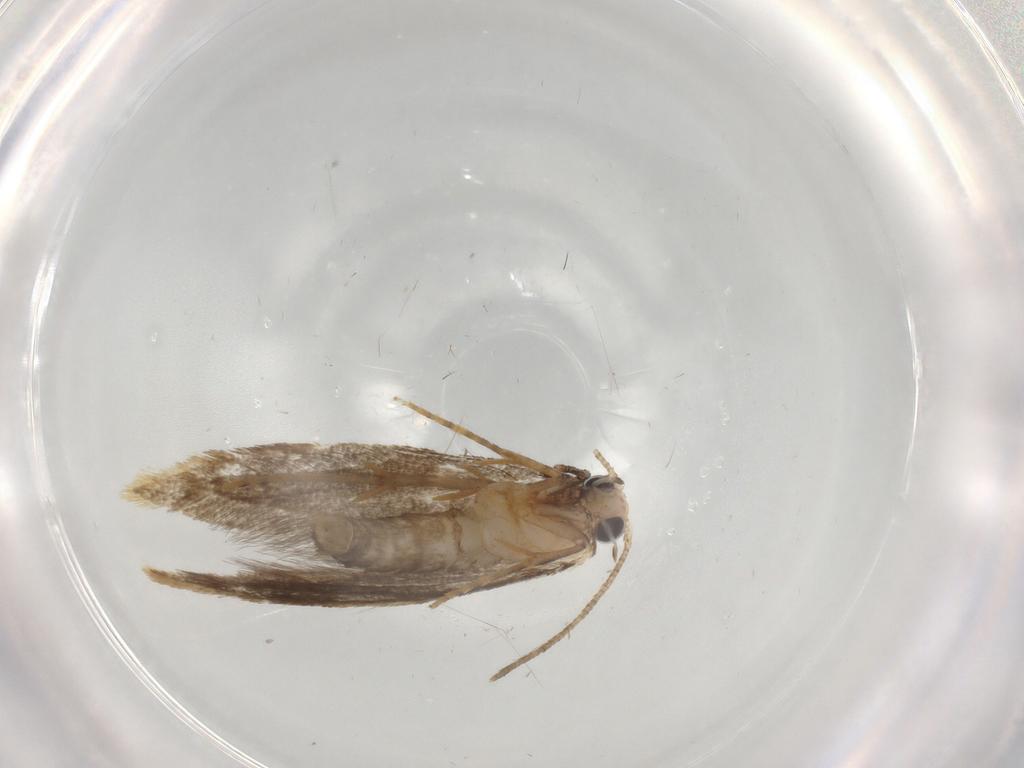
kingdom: Animalia
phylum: Arthropoda
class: Insecta
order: Lepidoptera
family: Tineidae
